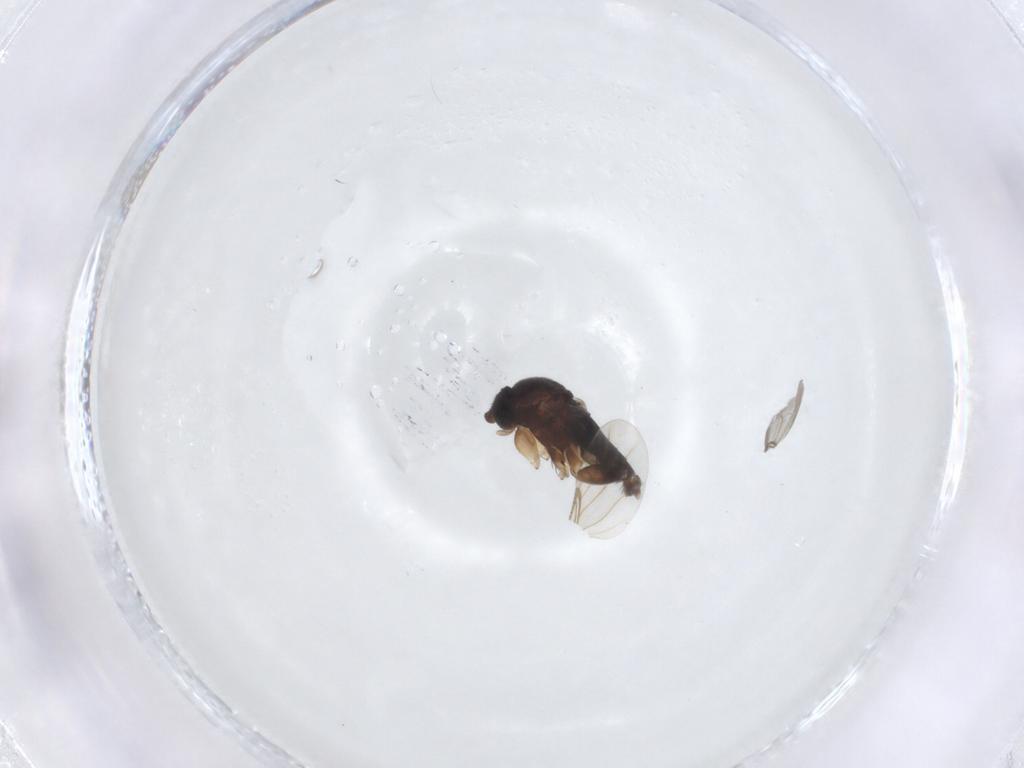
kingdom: Animalia
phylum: Arthropoda
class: Insecta
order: Diptera
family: Phoridae
